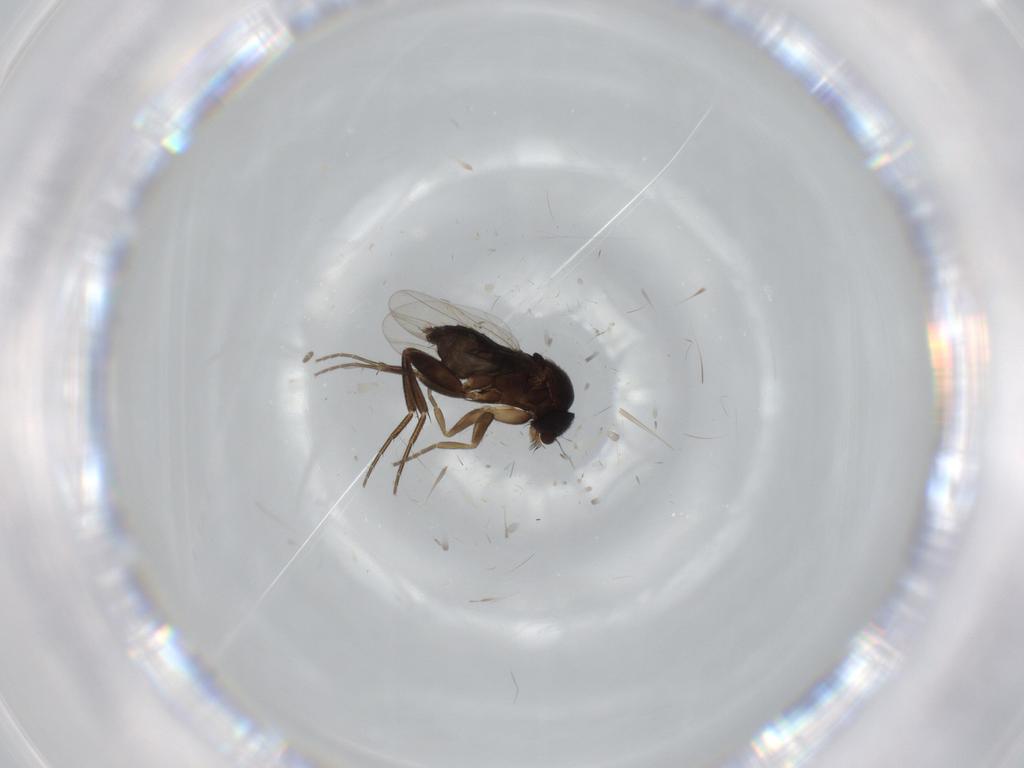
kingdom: Animalia
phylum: Arthropoda
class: Insecta
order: Diptera
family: Phoridae
